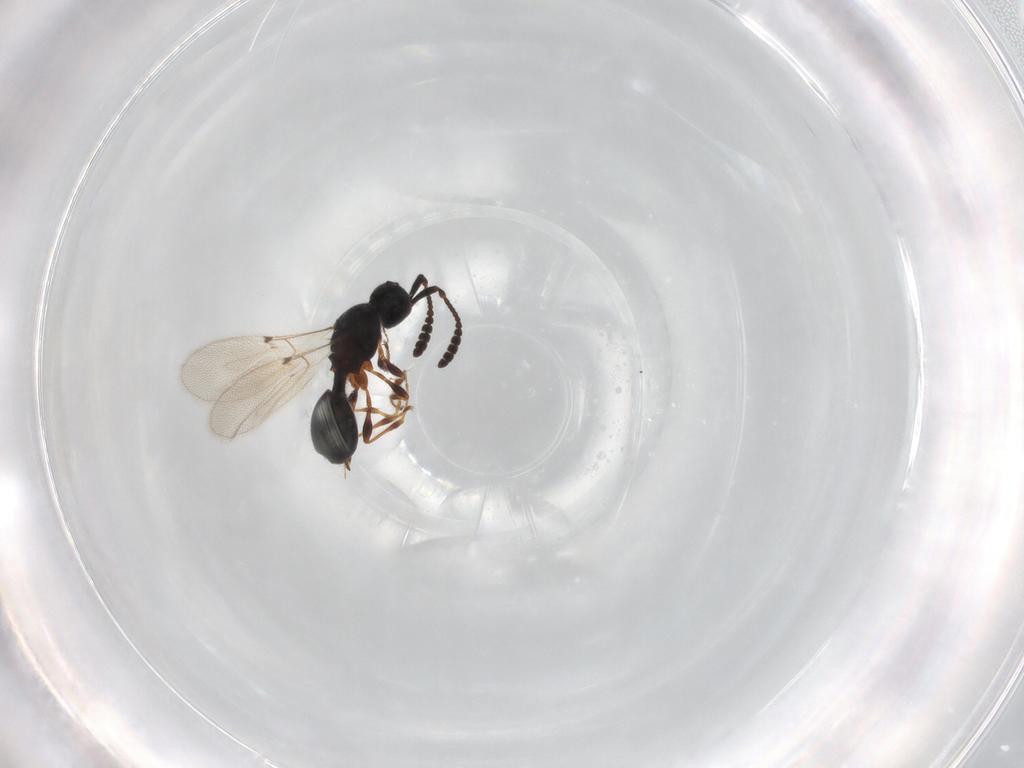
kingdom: Animalia
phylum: Arthropoda
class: Insecta
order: Hymenoptera
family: Diapriidae
